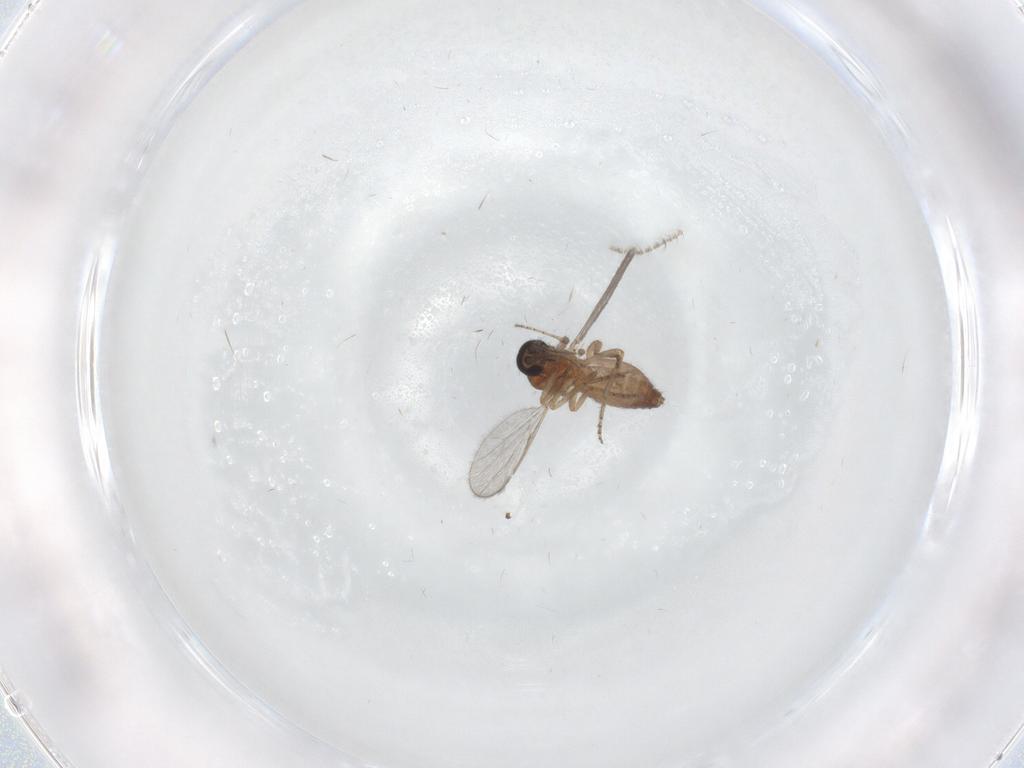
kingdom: Animalia
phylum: Arthropoda
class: Insecta
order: Diptera
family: Ceratopogonidae
